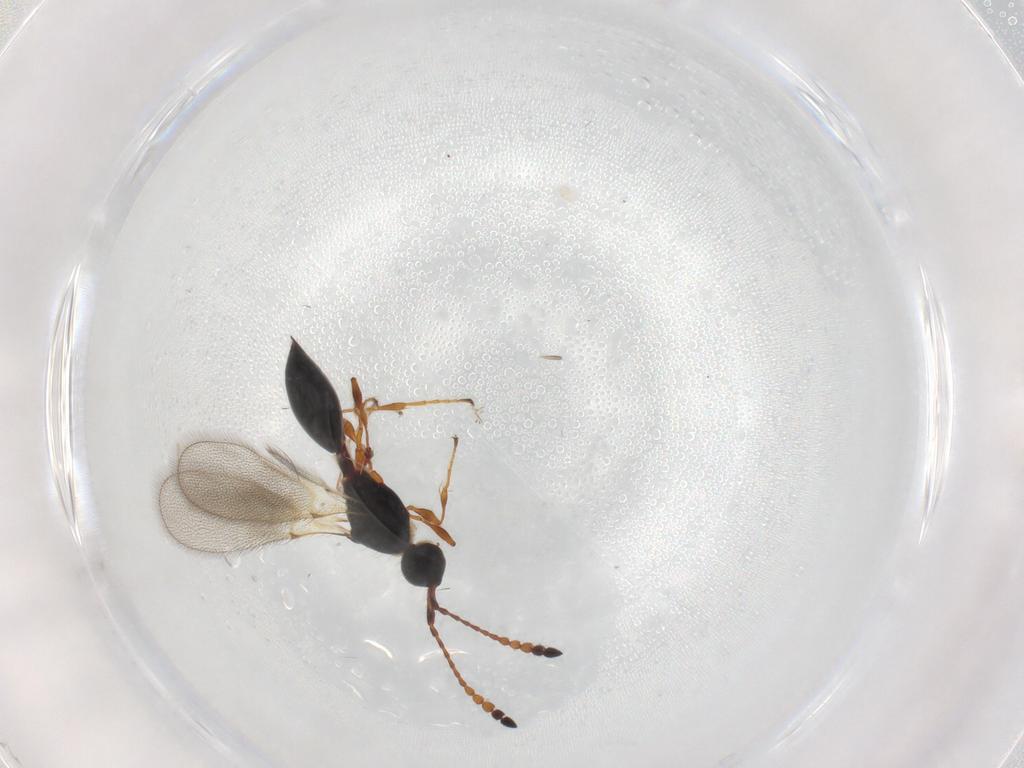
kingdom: Animalia
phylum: Arthropoda
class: Insecta
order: Hymenoptera
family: Diapriidae
